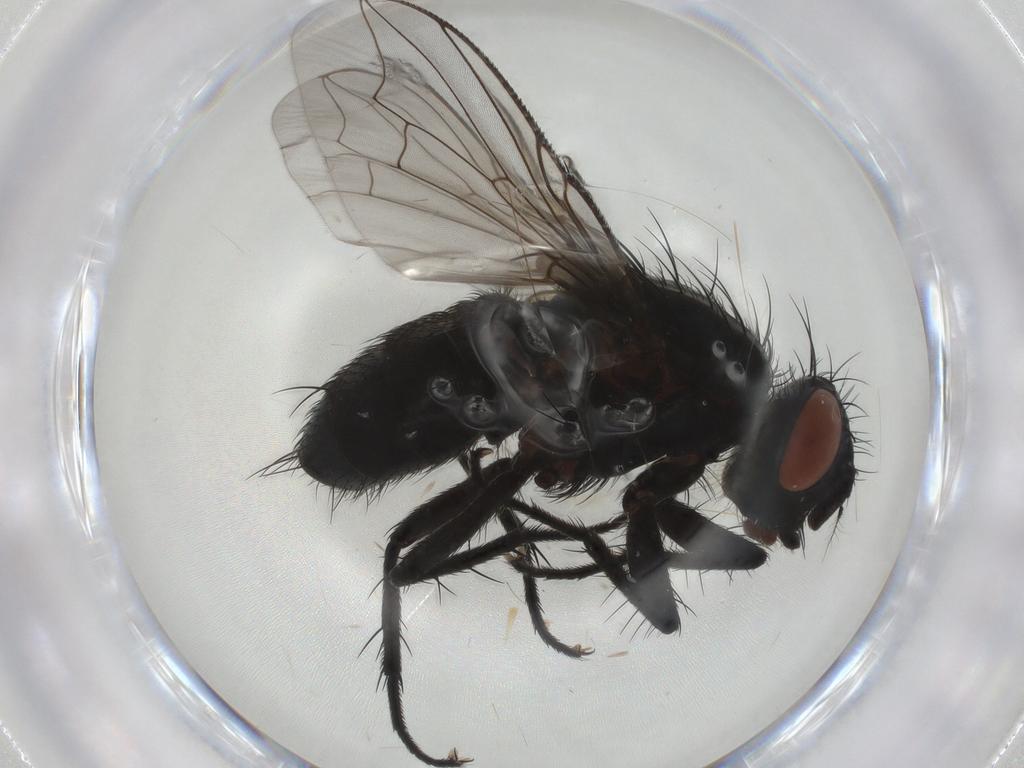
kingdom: Animalia
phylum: Arthropoda
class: Insecta
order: Diptera
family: Sarcophagidae
